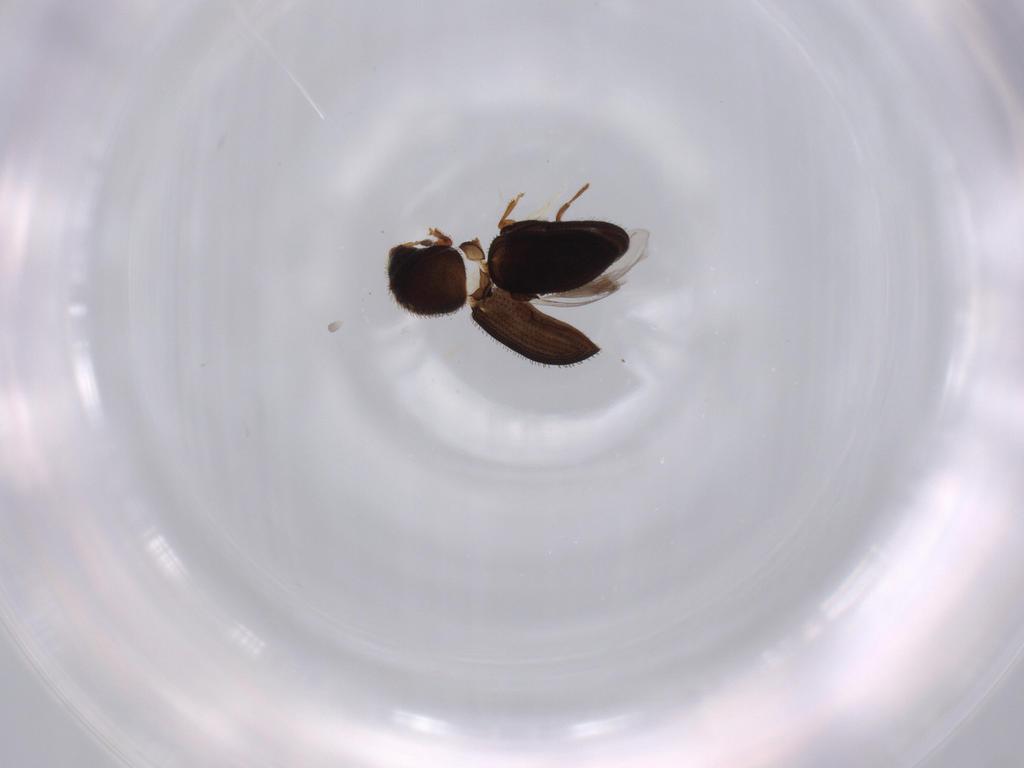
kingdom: Animalia
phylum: Arthropoda
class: Insecta
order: Coleoptera
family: Curculionidae
